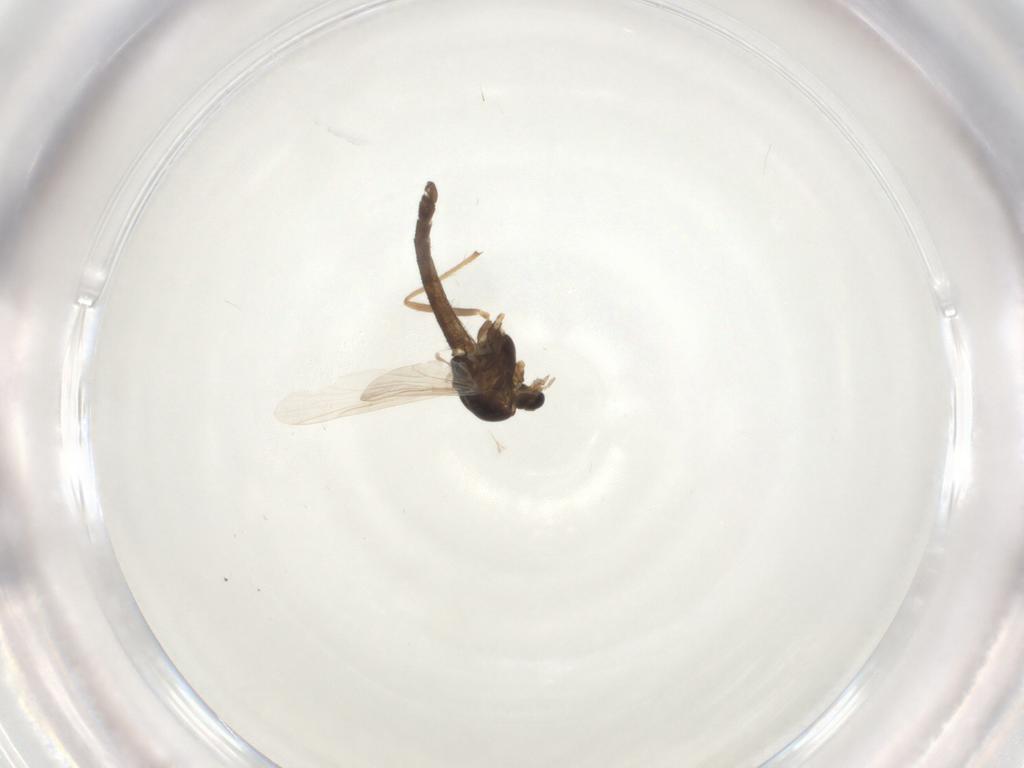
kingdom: Animalia
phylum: Arthropoda
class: Insecta
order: Diptera
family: Chironomidae
